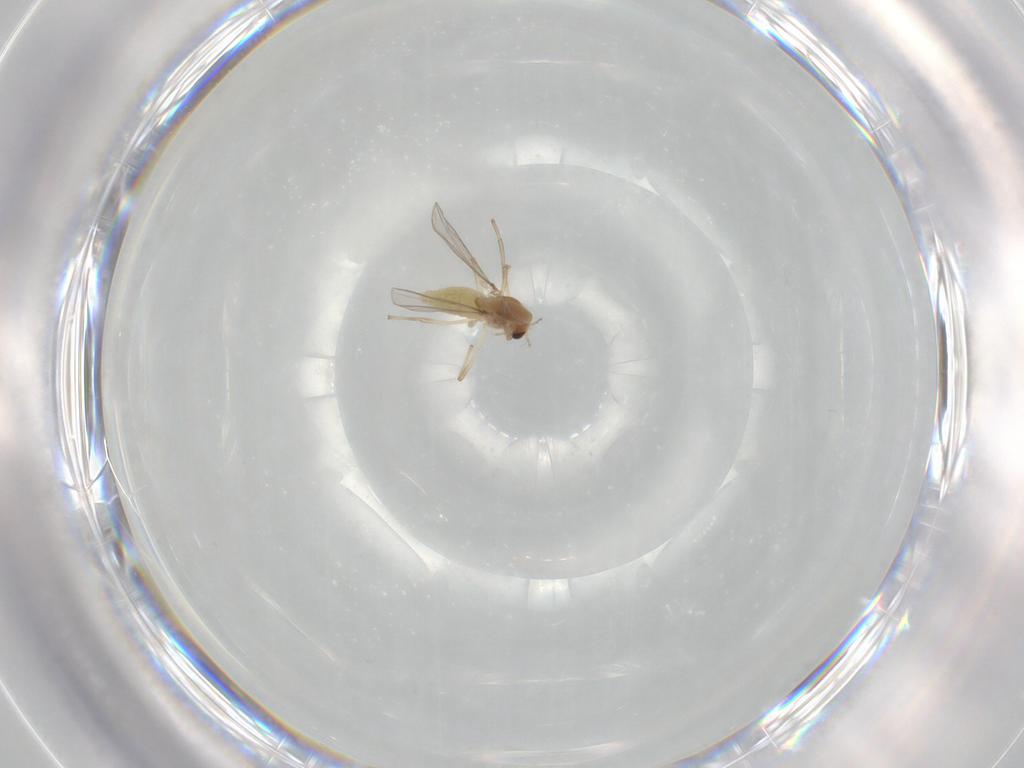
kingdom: Animalia
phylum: Arthropoda
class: Insecta
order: Diptera
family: Chironomidae
